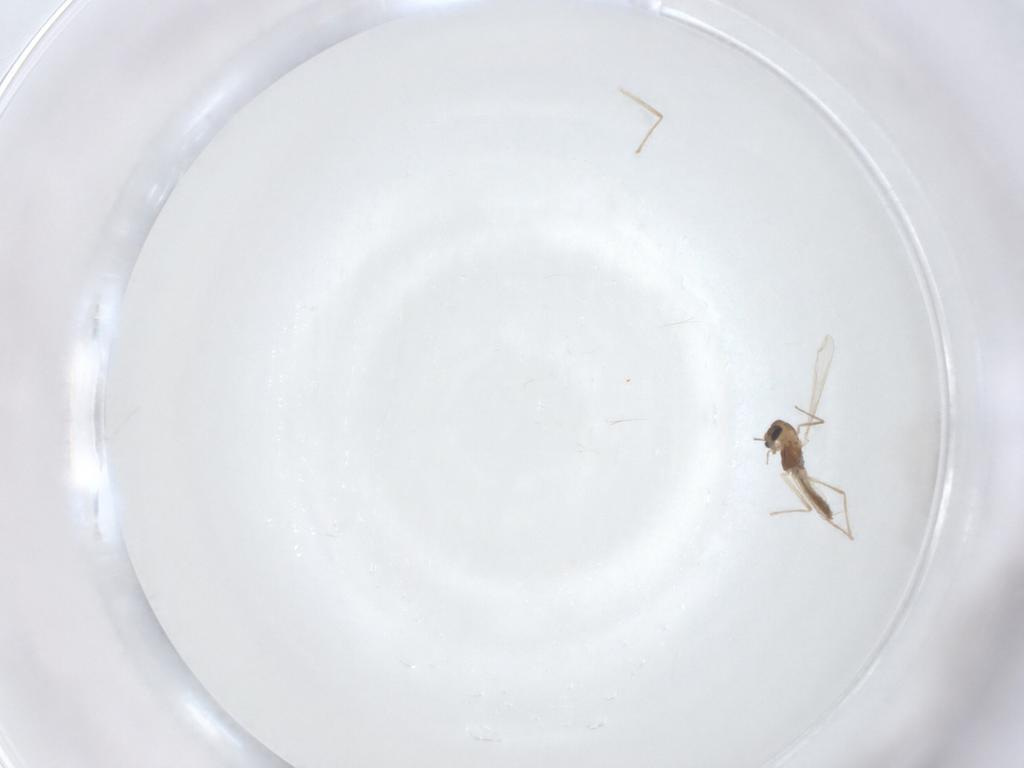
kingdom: Animalia
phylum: Arthropoda
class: Insecta
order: Diptera
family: Chironomidae
